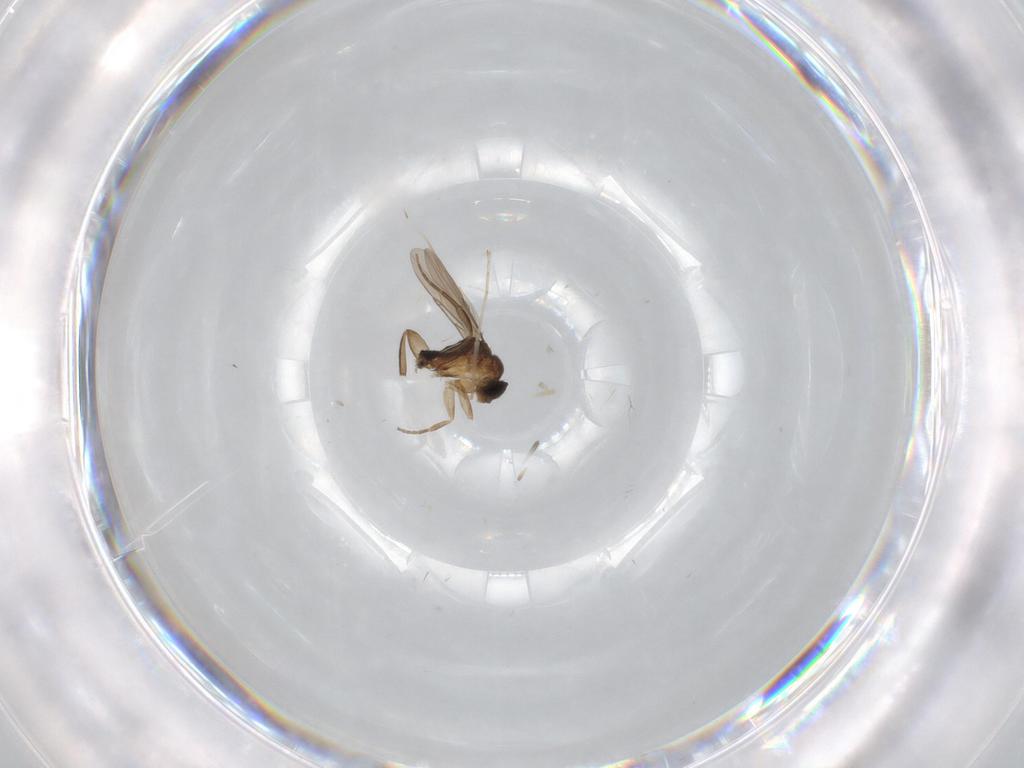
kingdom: Animalia
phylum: Arthropoda
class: Insecta
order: Diptera
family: Phoridae
